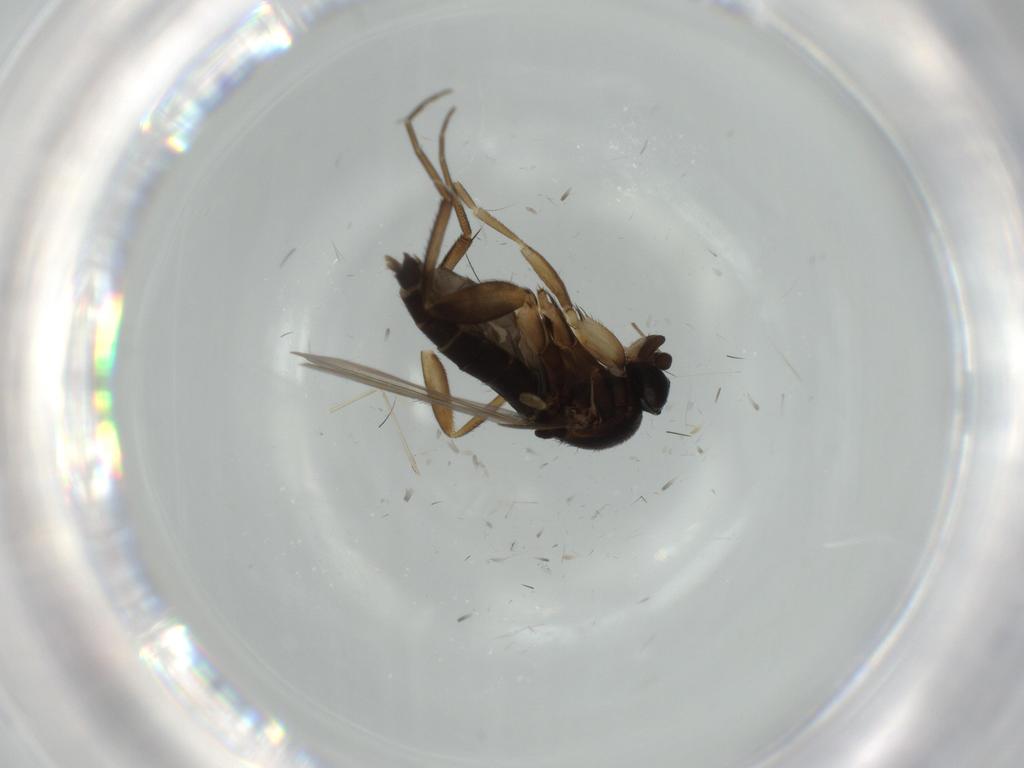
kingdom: Animalia
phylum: Arthropoda
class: Insecta
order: Diptera
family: Phoridae
